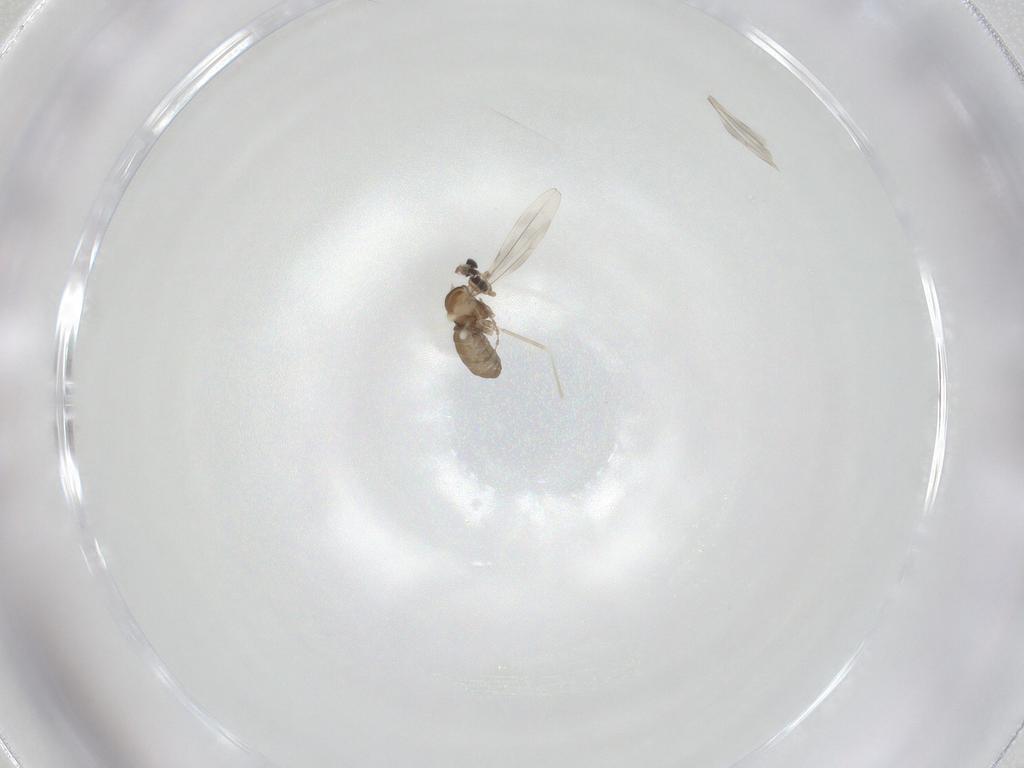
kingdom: Animalia
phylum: Arthropoda
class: Insecta
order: Diptera
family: Cecidomyiidae
